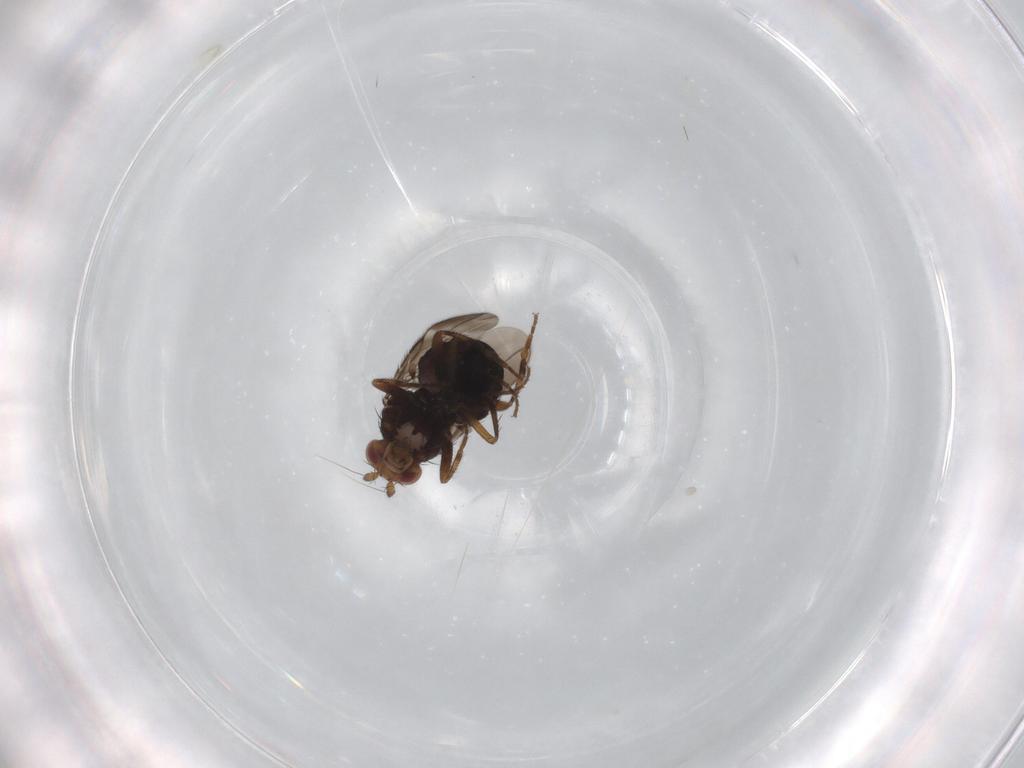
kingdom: Animalia
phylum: Arthropoda
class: Insecta
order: Diptera
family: Sphaeroceridae
